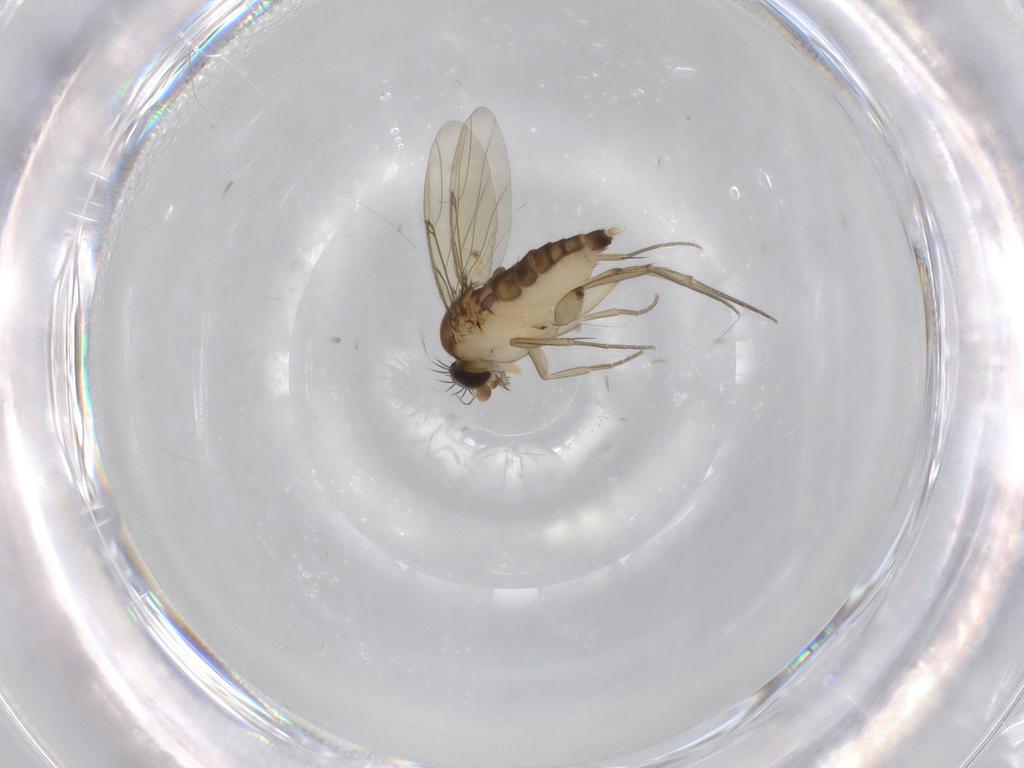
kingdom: Animalia
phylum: Arthropoda
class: Insecta
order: Diptera
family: Phoridae
